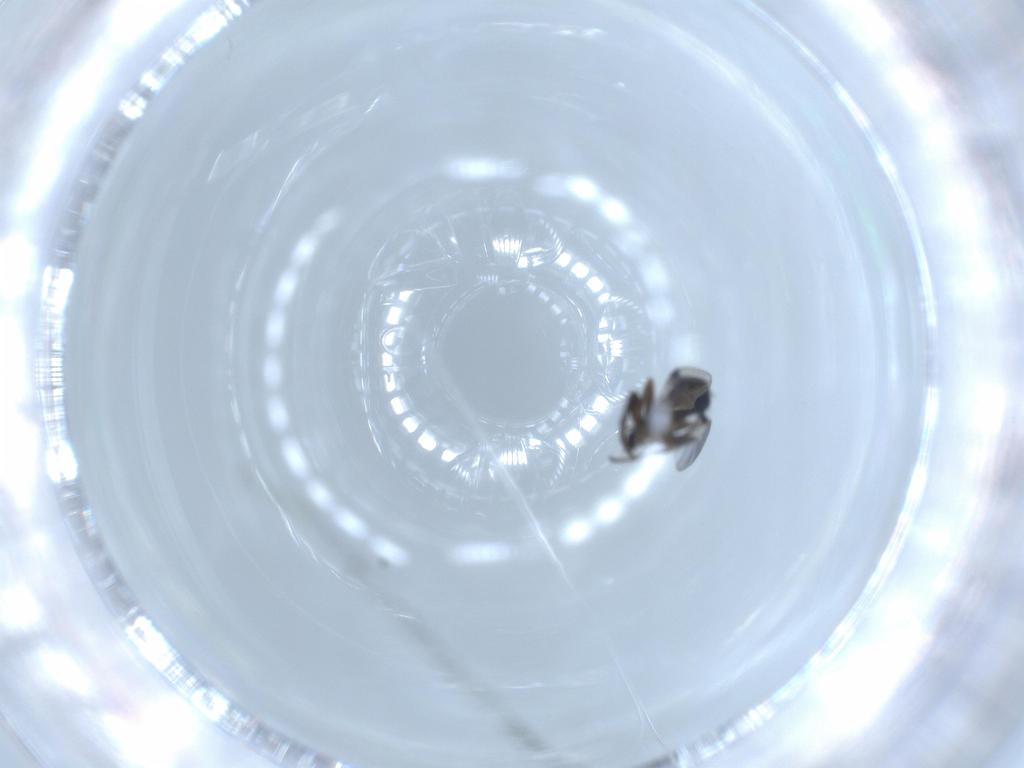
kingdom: Animalia
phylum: Arthropoda
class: Insecta
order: Diptera
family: Phoridae
